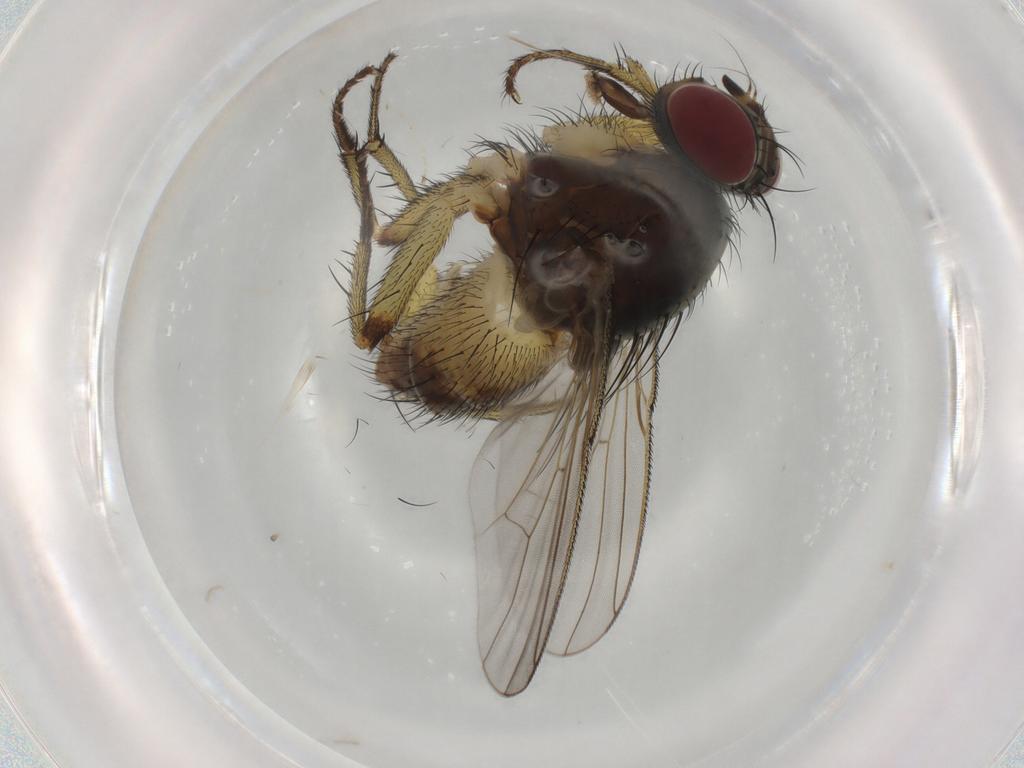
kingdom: Animalia
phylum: Arthropoda
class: Insecta
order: Diptera
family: Muscidae
